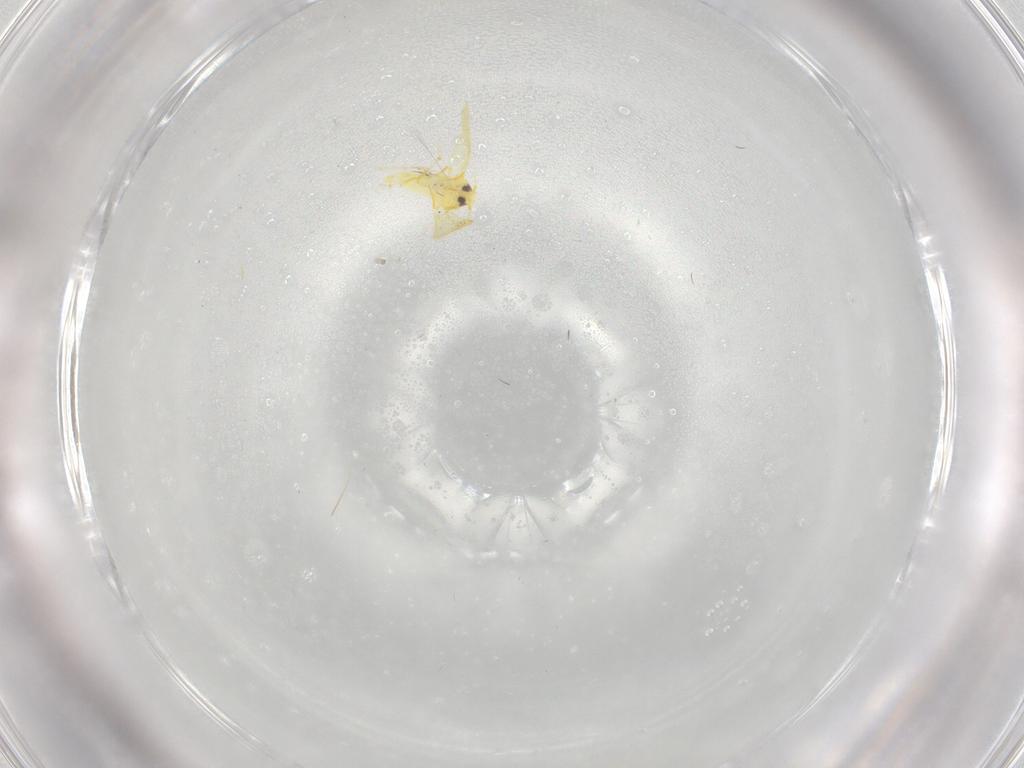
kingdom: Animalia
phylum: Arthropoda
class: Insecta
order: Hemiptera
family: Aleyrodidae
